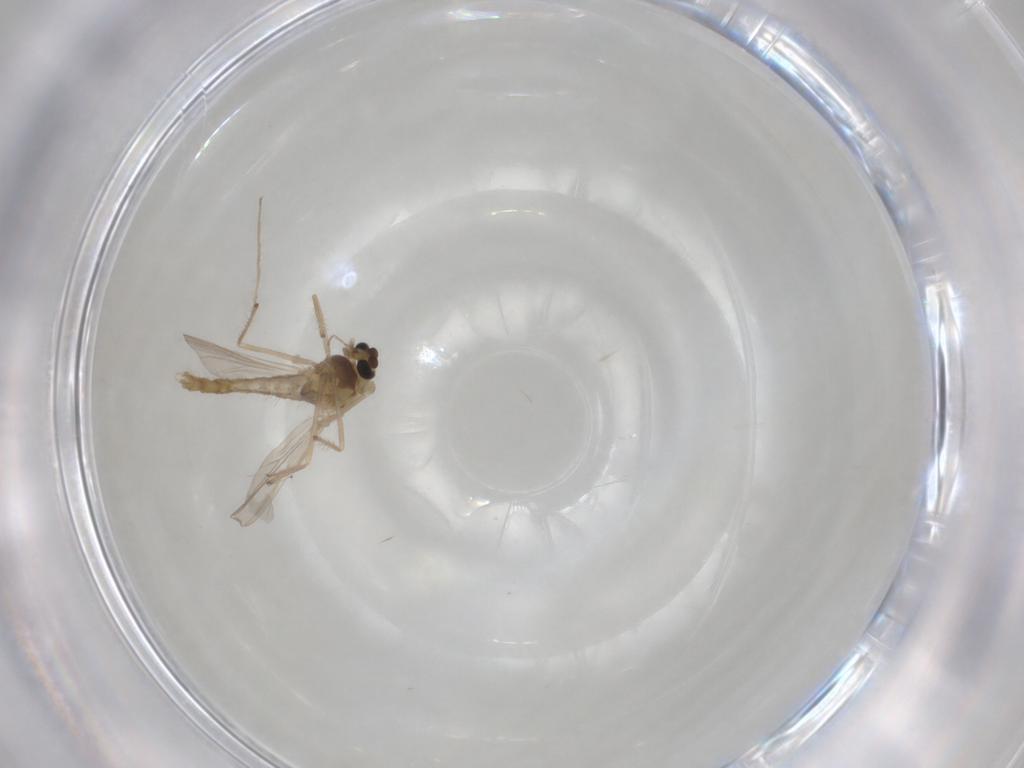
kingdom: Animalia
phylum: Arthropoda
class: Insecta
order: Diptera
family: Chironomidae
